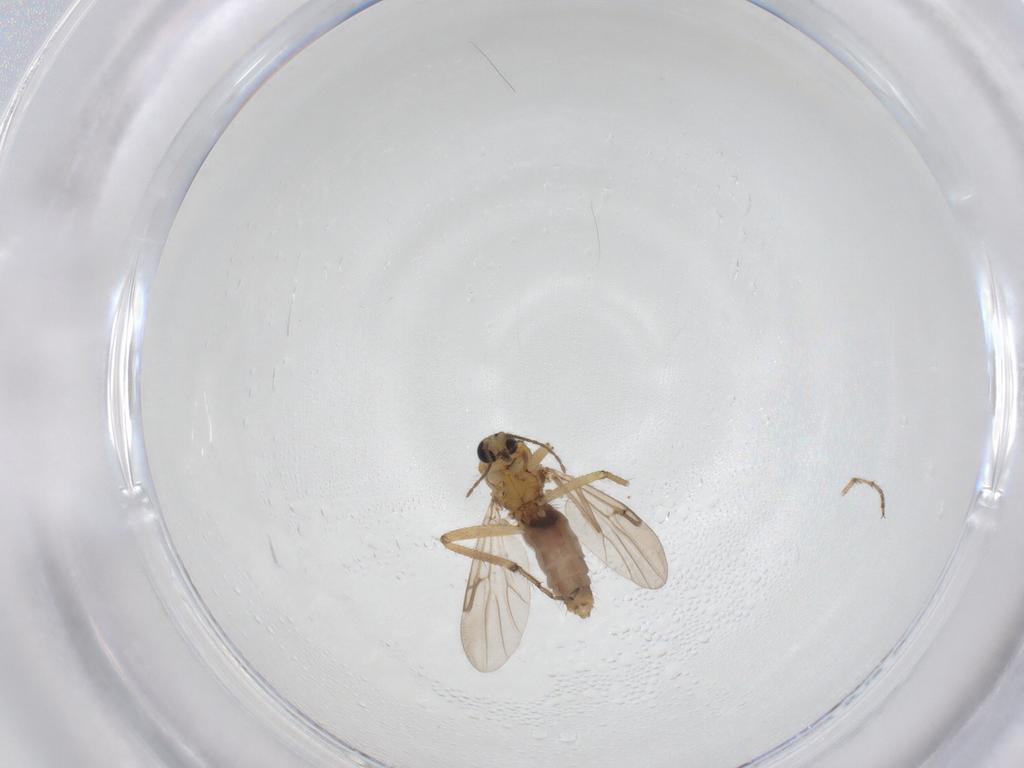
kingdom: Animalia
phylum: Arthropoda
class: Insecta
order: Diptera
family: Ceratopogonidae
